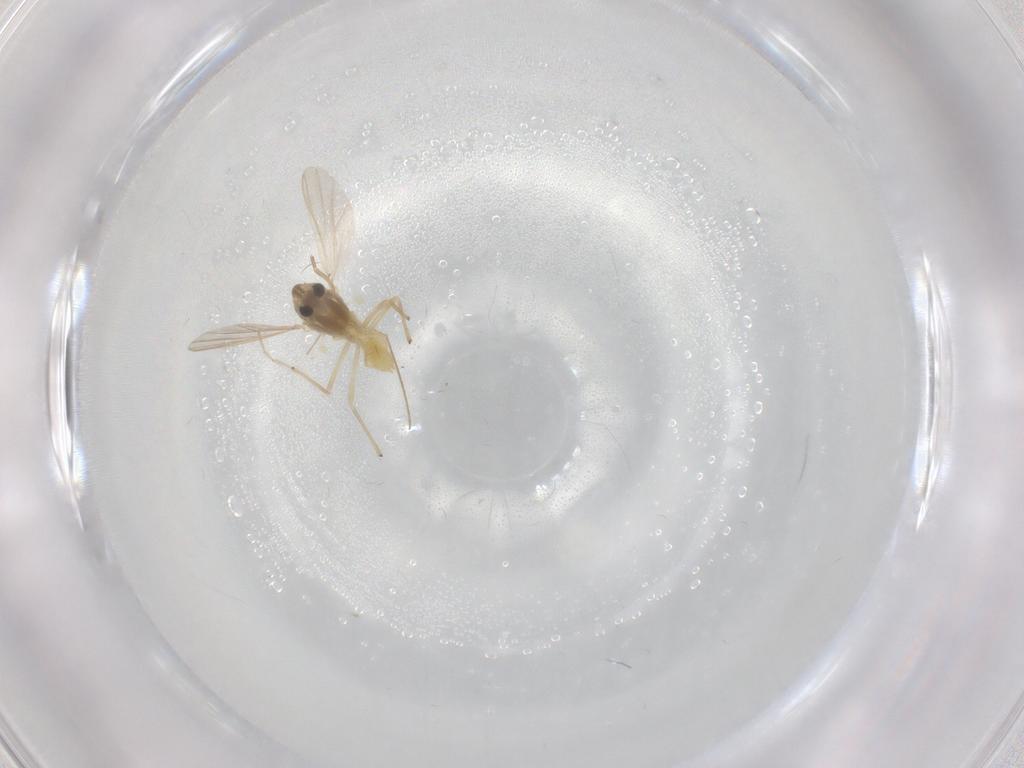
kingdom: Animalia
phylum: Arthropoda
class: Insecta
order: Diptera
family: Chironomidae
